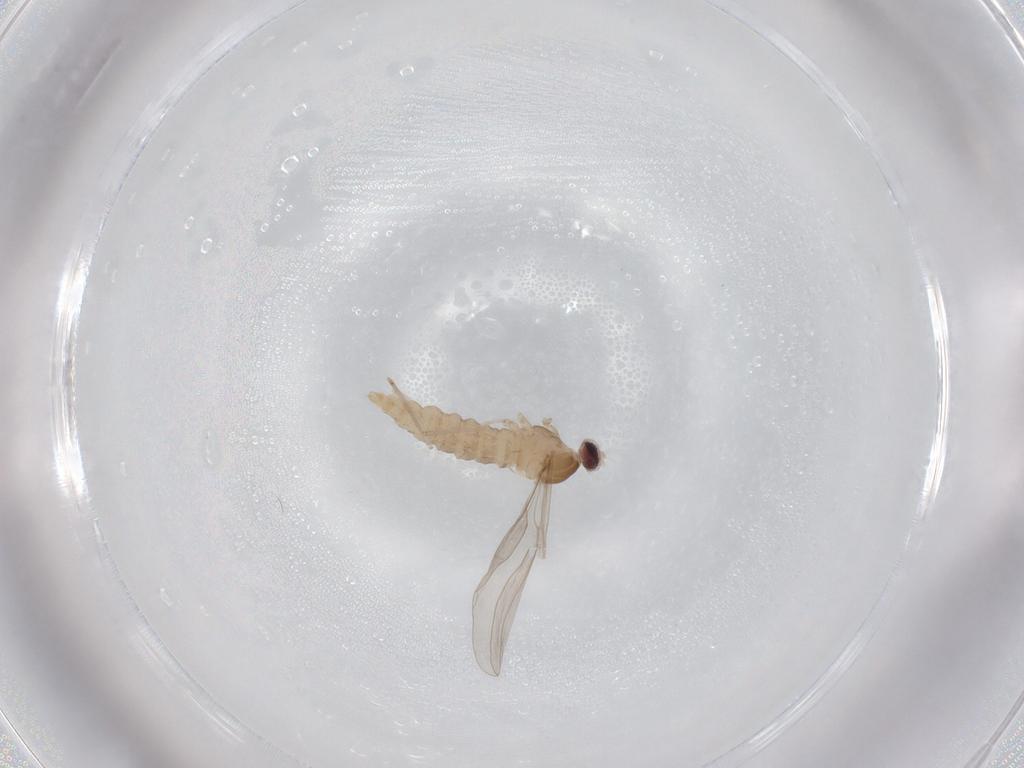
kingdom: Animalia
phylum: Arthropoda
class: Insecta
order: Diptera
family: Cecidomyiidae
